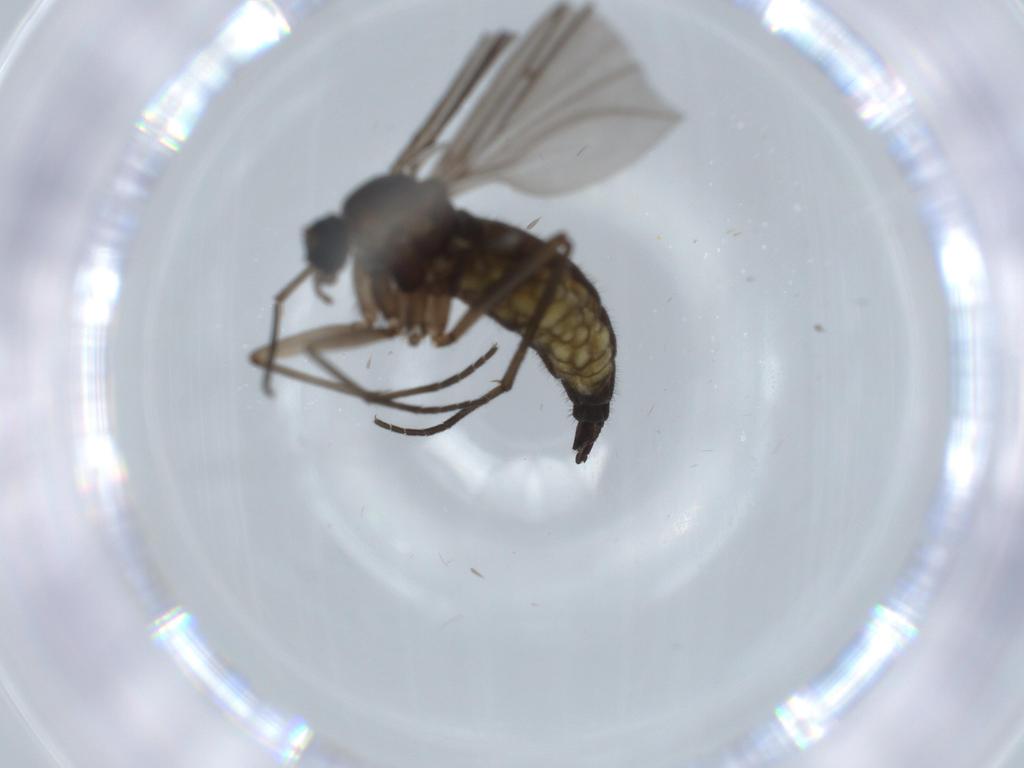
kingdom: Animalia
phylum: Arthropoda
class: Insecta
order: Diptera
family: Sciaridae
